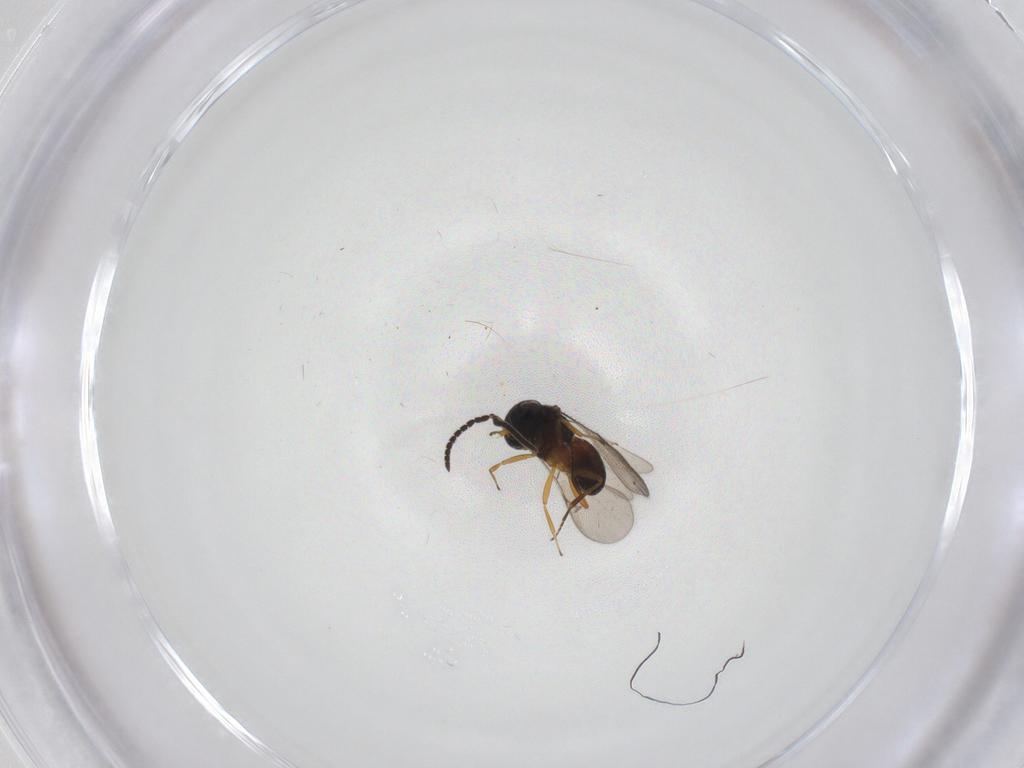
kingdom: Animalia
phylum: Arthropoda
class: Insecta
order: Hymenoptera
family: Scelionidae
